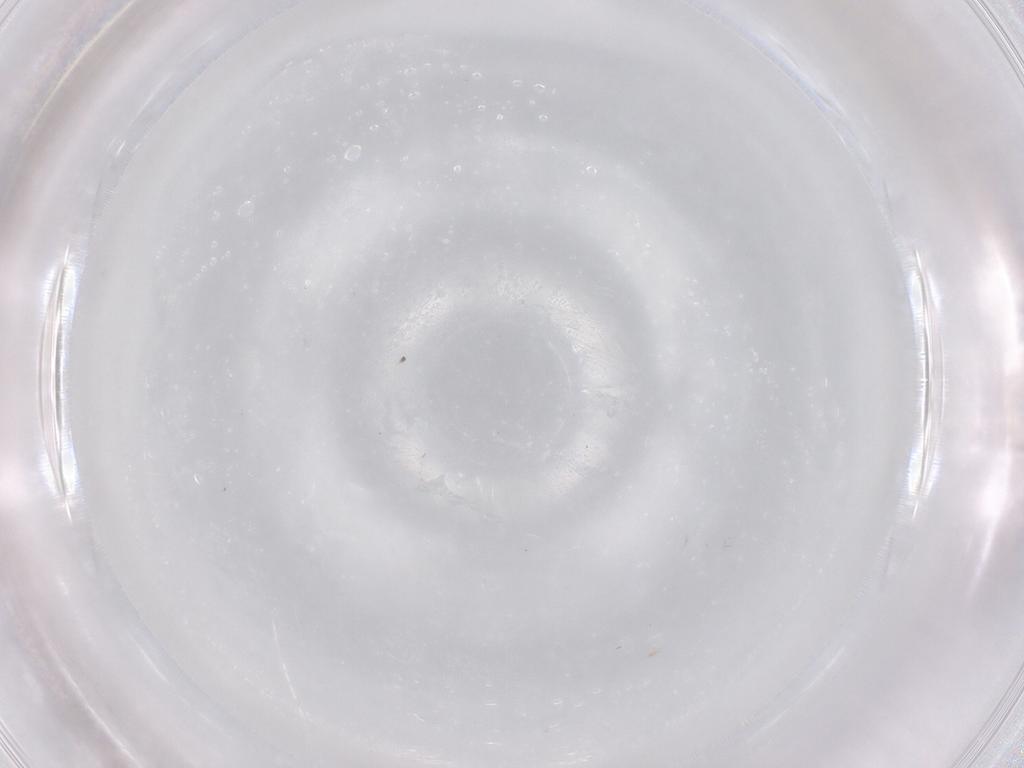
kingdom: Animalia
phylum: Arthropoda
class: Insecta
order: Hymenoptera
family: Trichogrammatidae
